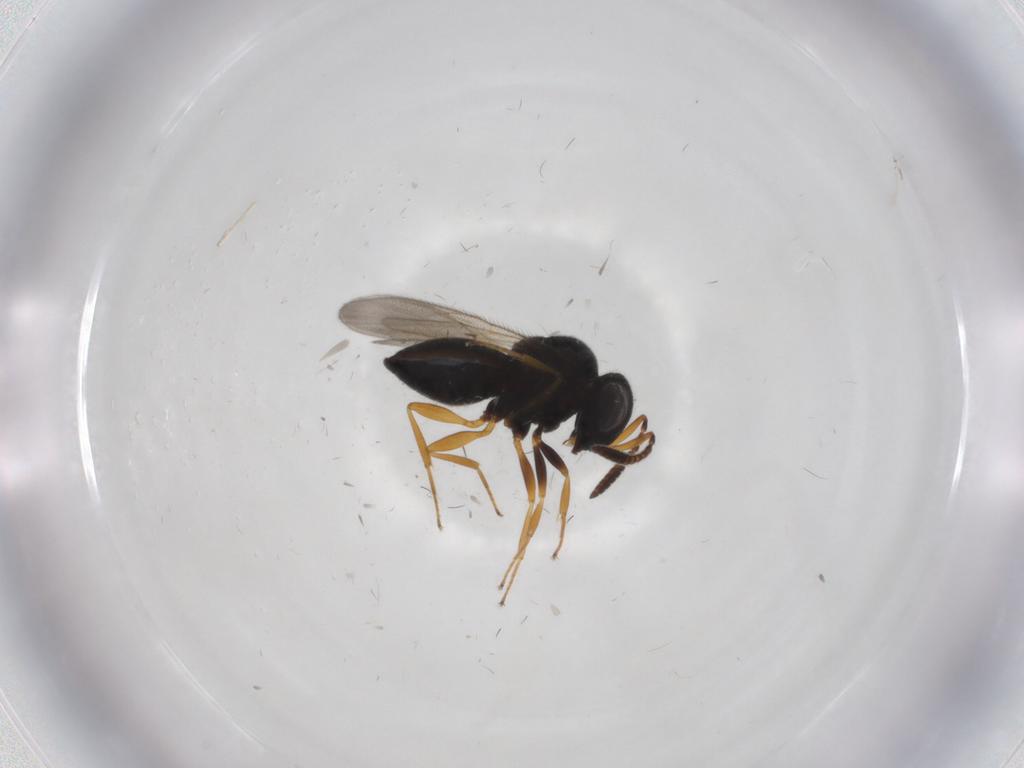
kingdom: Animalia
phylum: Arthropoda
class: Insecta
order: Hymenoptera
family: Scelionidae
